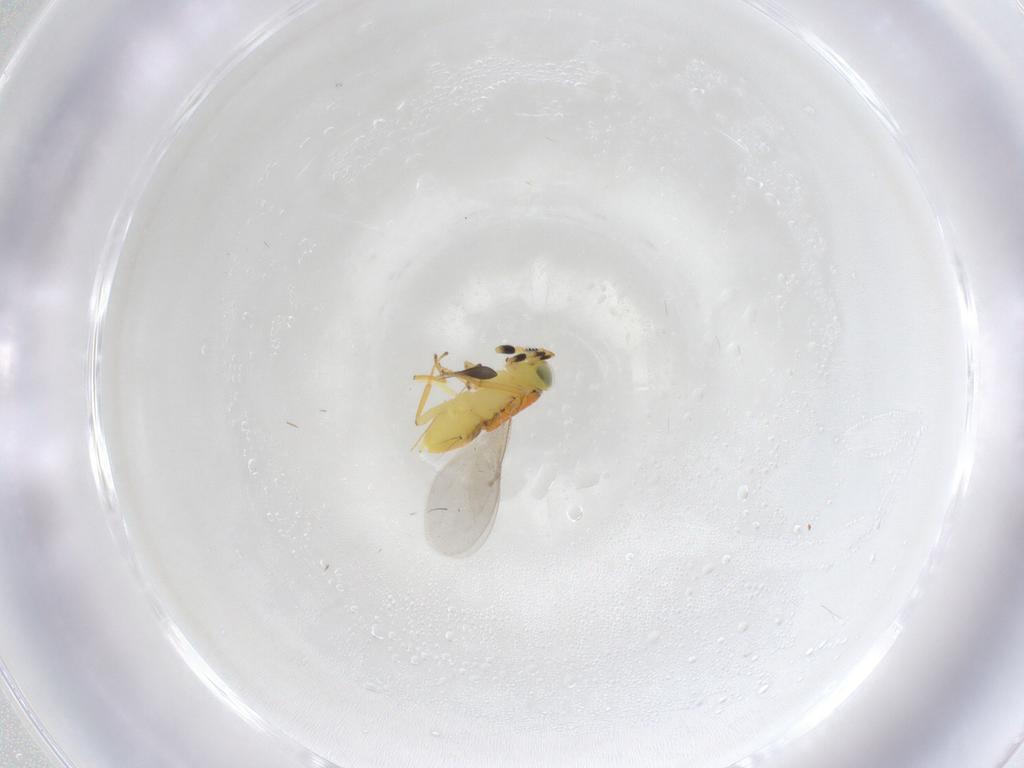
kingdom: Animalia
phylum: Arthropoda
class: Insecta
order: Hymenoptera
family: Encyrtidae
